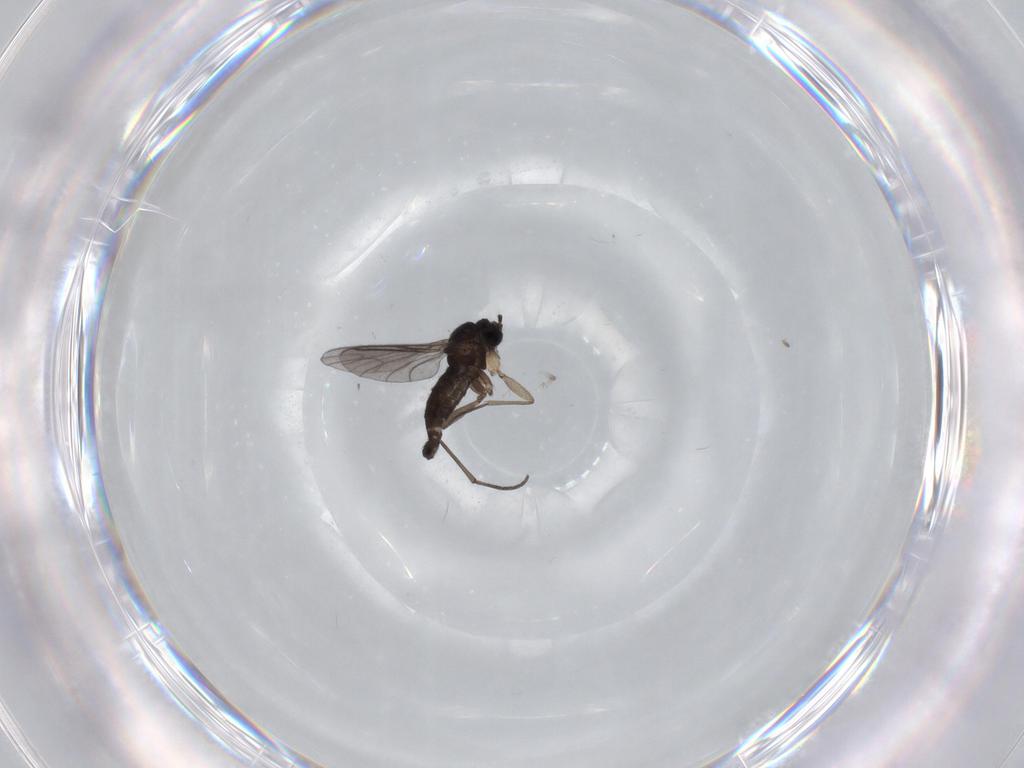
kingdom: Animalia
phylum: Arthropoda
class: Insecta
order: Diptera
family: Sciaridae
